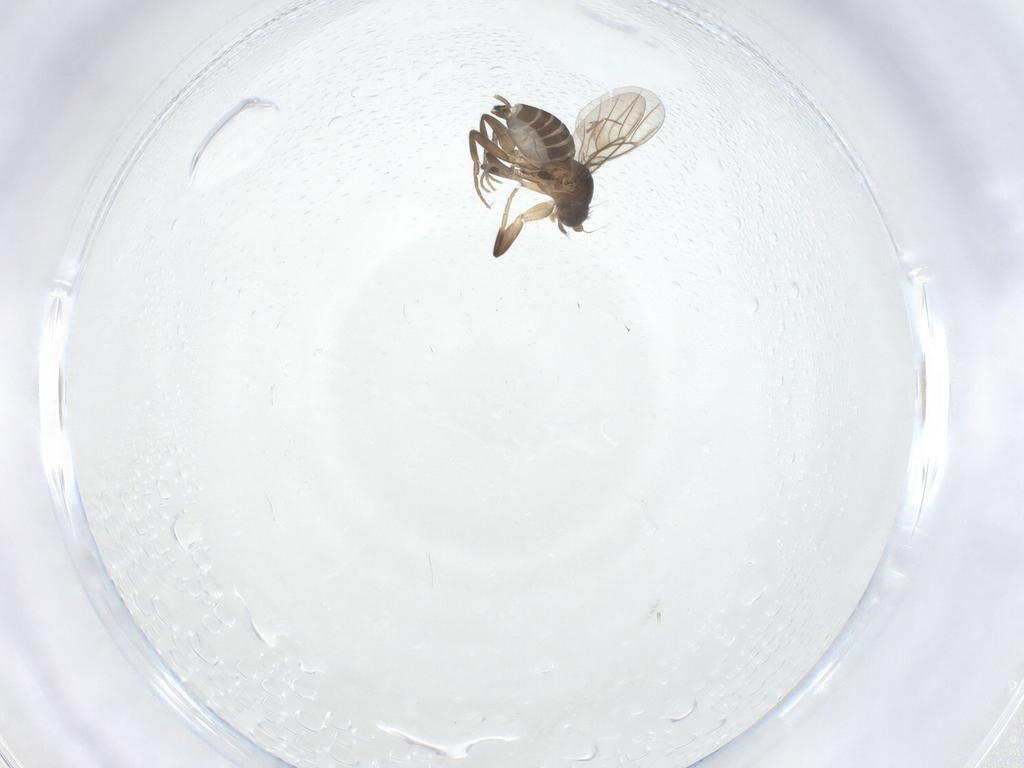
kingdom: Animalia
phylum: Arthropoda
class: Insecta
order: Diptera
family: Phoridae
